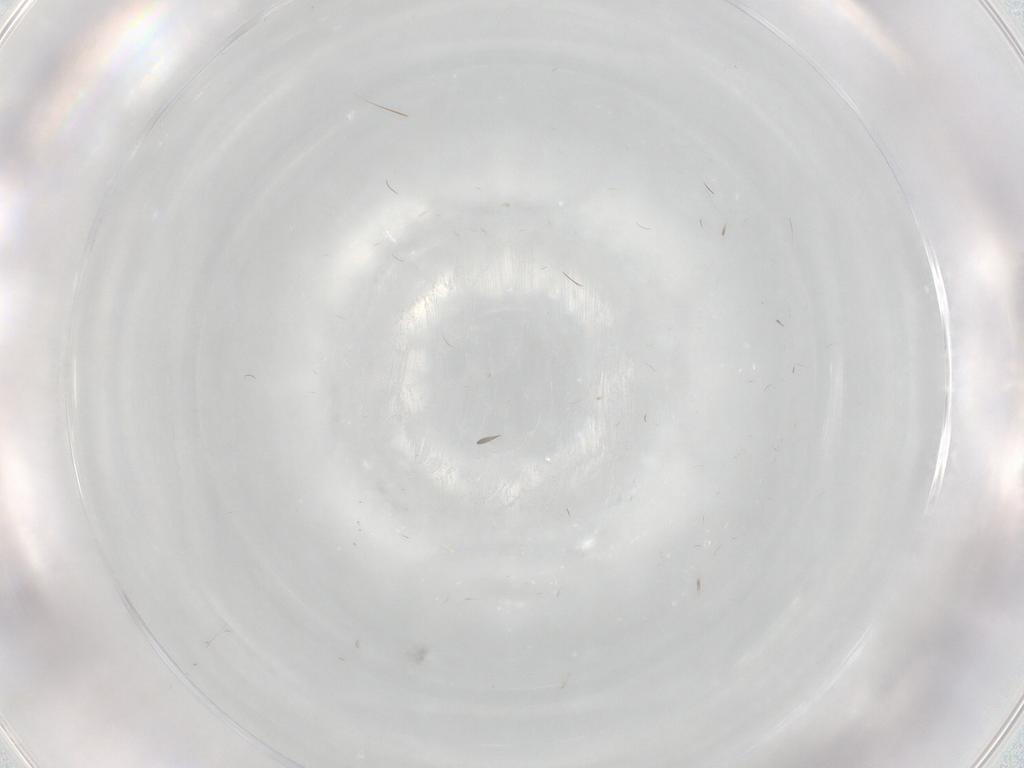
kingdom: Animalia
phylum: Arthropoda
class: Insecta
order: Diptera
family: Cecidomyiidae
